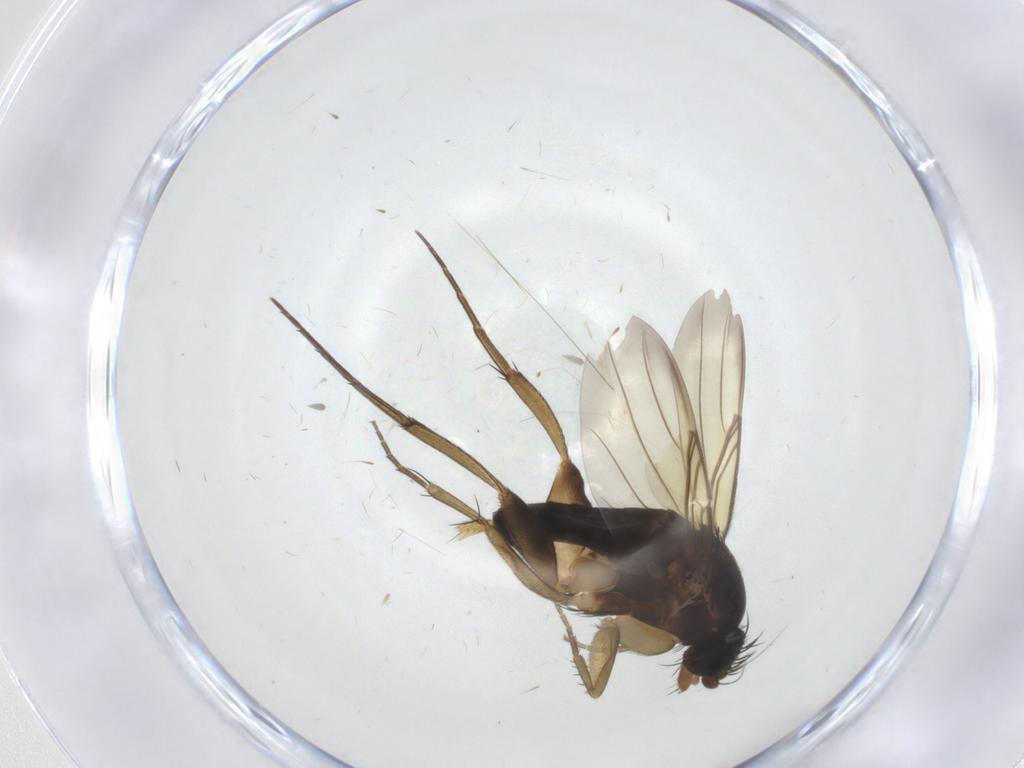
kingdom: Animalia
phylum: Arthropoda
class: Insecta
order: Diptera
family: Phoridae
